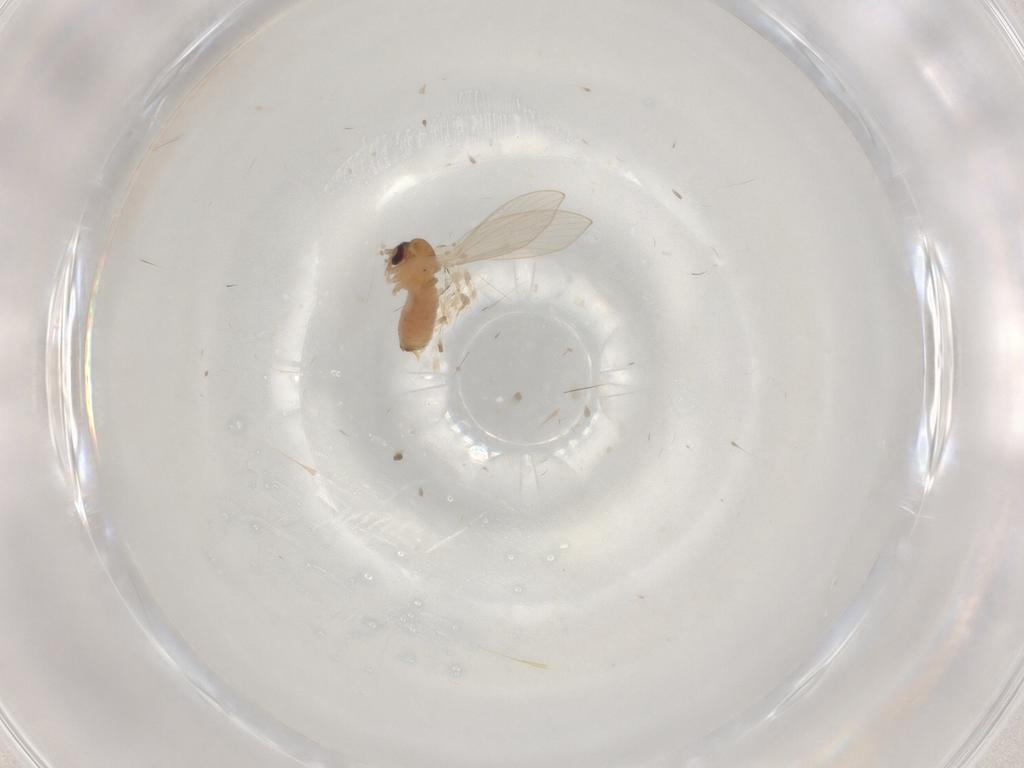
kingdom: Animalia
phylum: Arthropoda
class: Insecta
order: Diptera
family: Psychodidae
